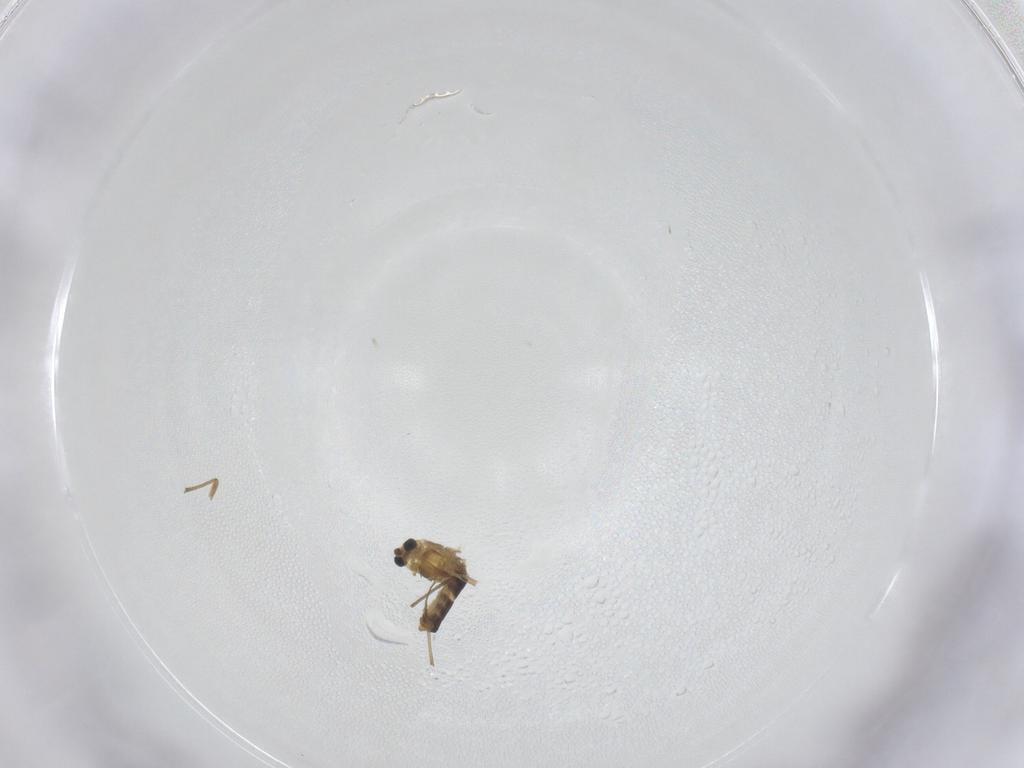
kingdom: Animalia
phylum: Arthropoda
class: Insecta
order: Diptera
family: Chironomidae
